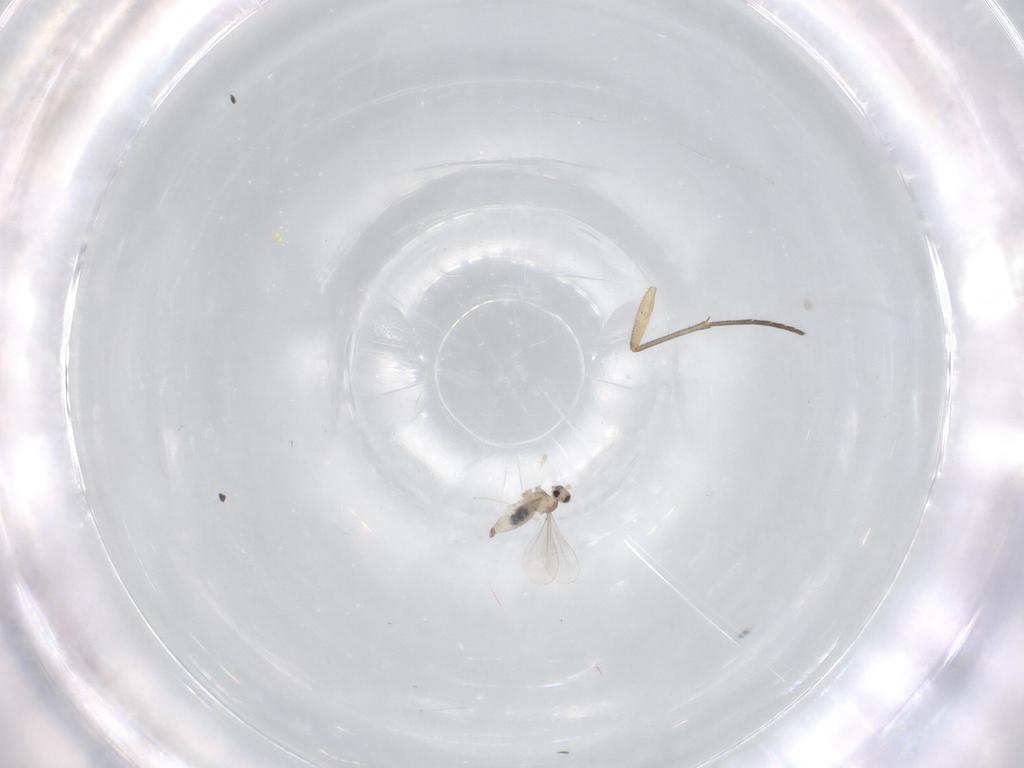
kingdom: Animalia
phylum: Arthropoda
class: Insecta
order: Diptera
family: Cecidomyiidae
